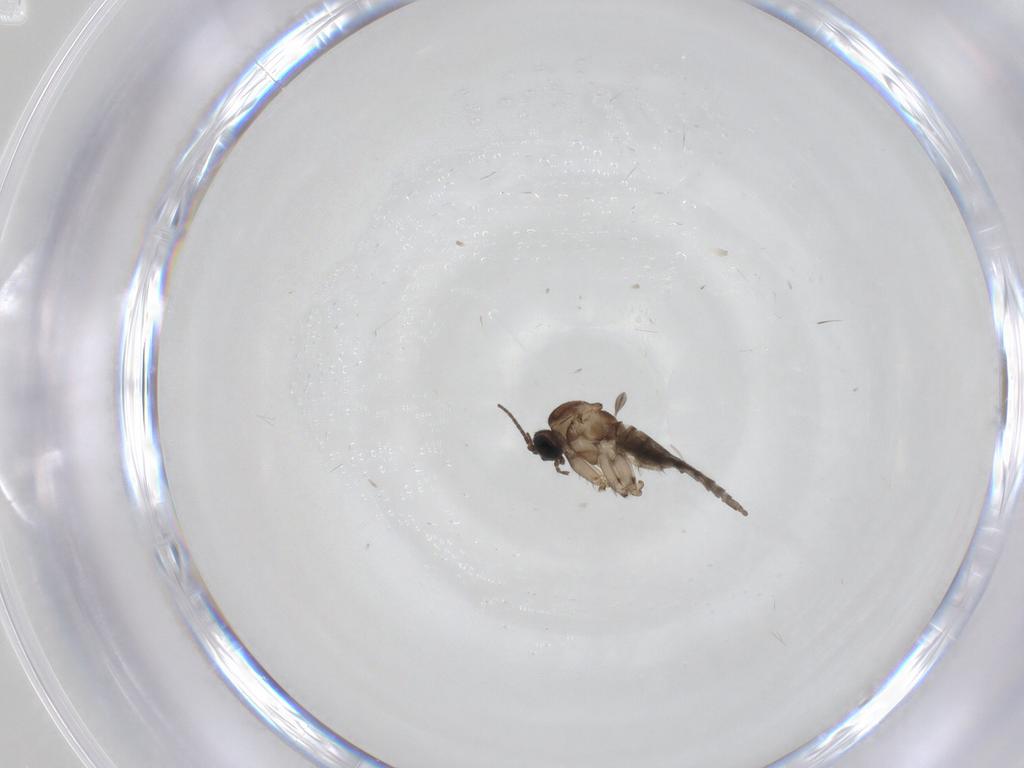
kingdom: Animalia
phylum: Arthropoda
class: Insecta
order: Diptera
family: Sciaridae
